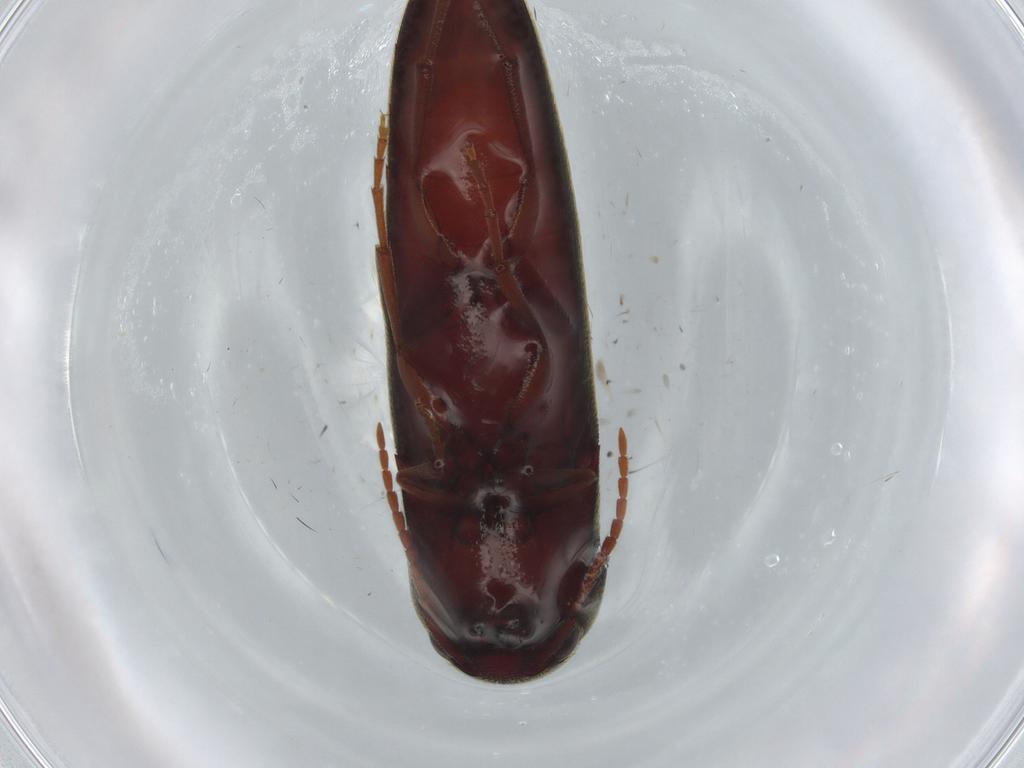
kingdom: Animalia
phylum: Arthropoda
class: Insecta
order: Coleoptera
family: Eucnemidae
